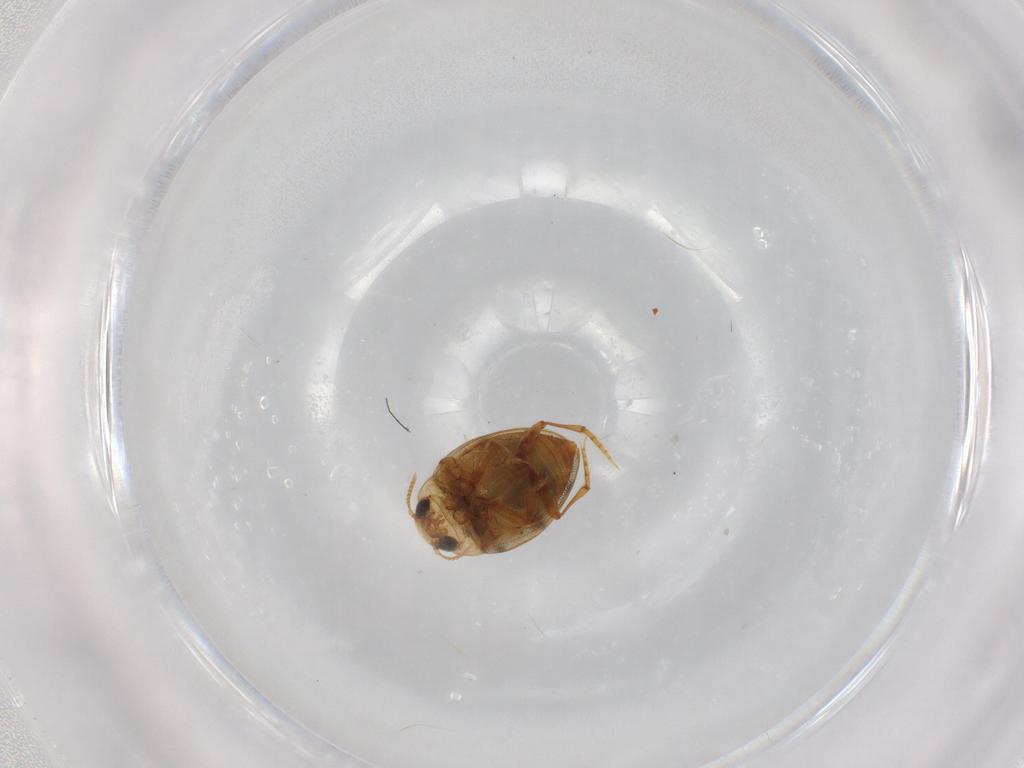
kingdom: Animalia
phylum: Arthropoda
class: Insecta
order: Coleoptera
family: Dytiscidae
